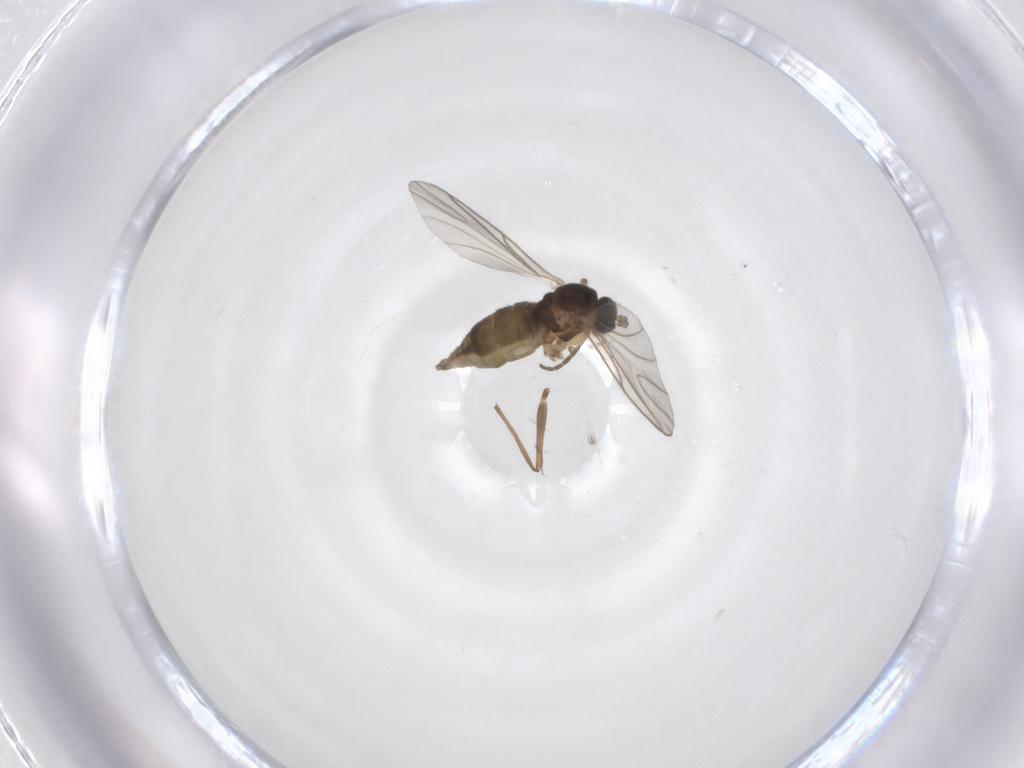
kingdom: Animalia
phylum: Arthropoda
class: Insecta
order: Diptera
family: Chironomidae
